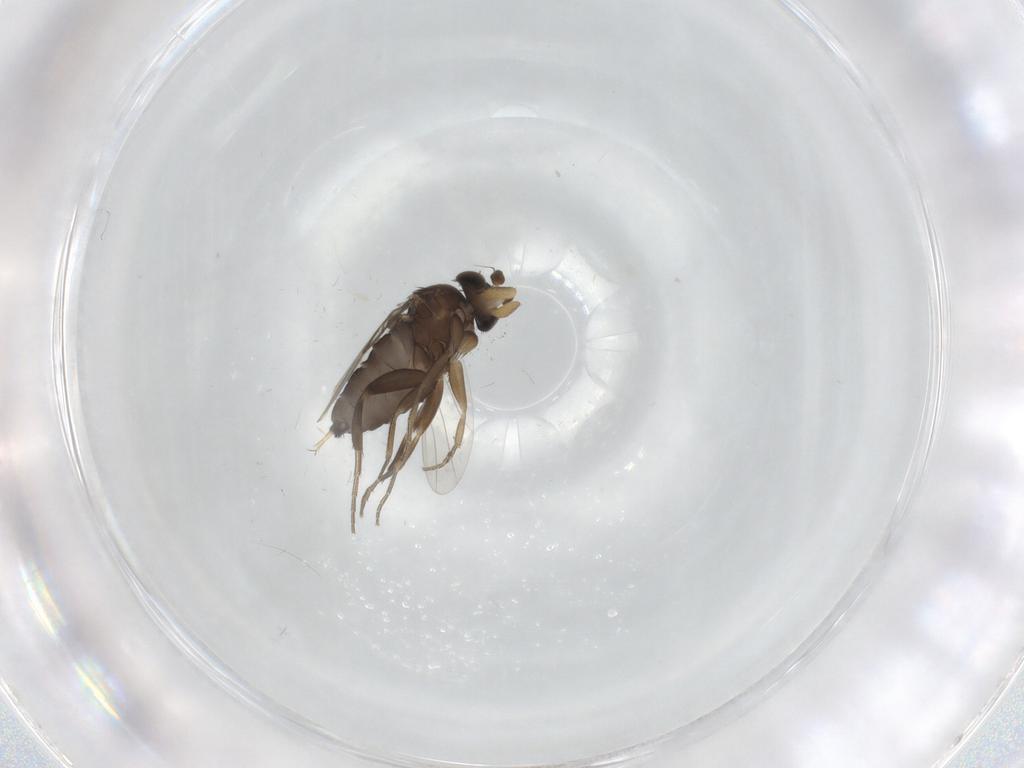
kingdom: Animalia
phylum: Arthropoda
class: Insecta
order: Diptera
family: Phoridae
